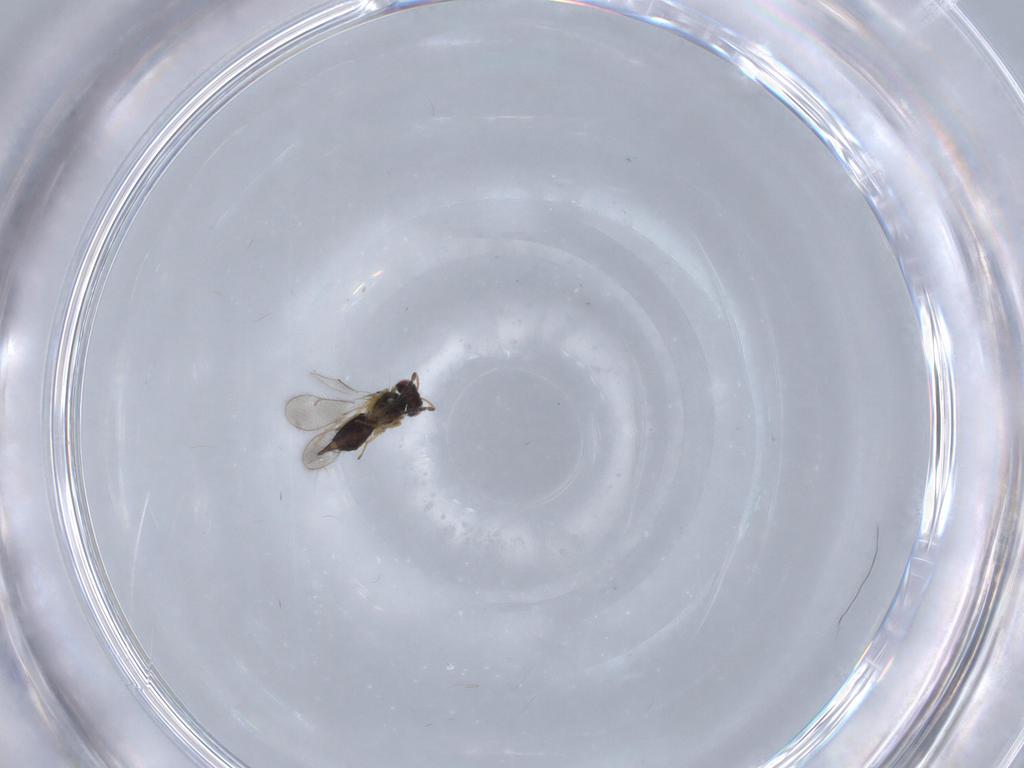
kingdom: Animalia
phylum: Arthropoda
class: Insecta
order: Hymenoptera
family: Eulophidae
